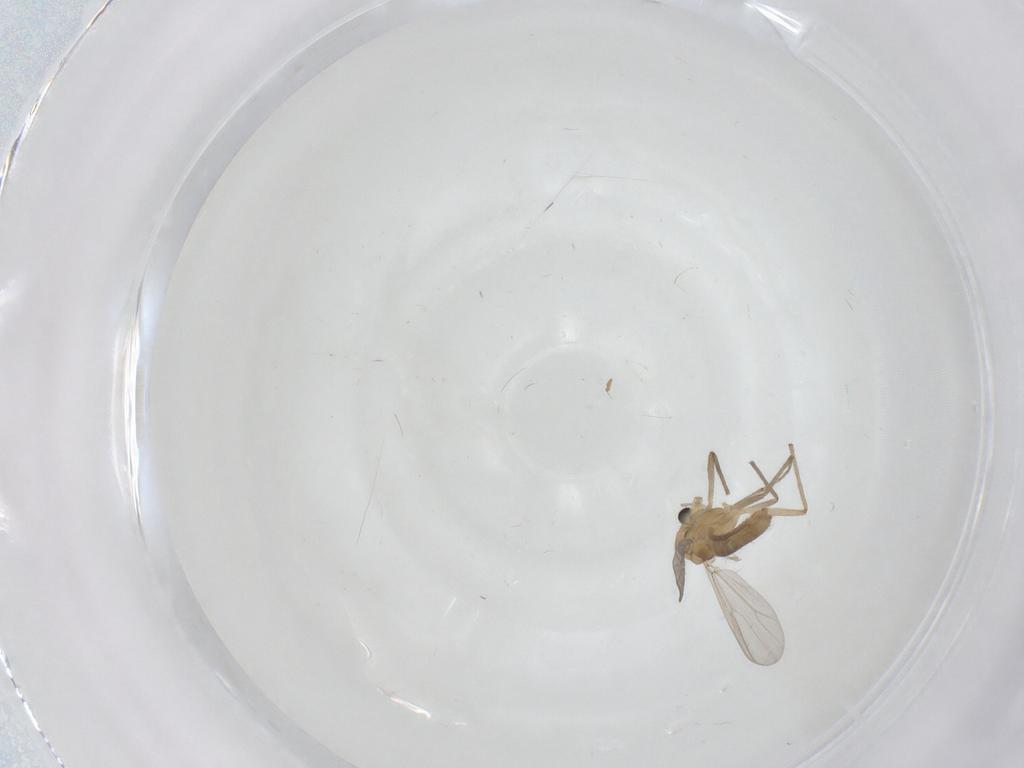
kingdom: Animalia
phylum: Arthropoda
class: Insecta
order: Diptera
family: Chironomidae
